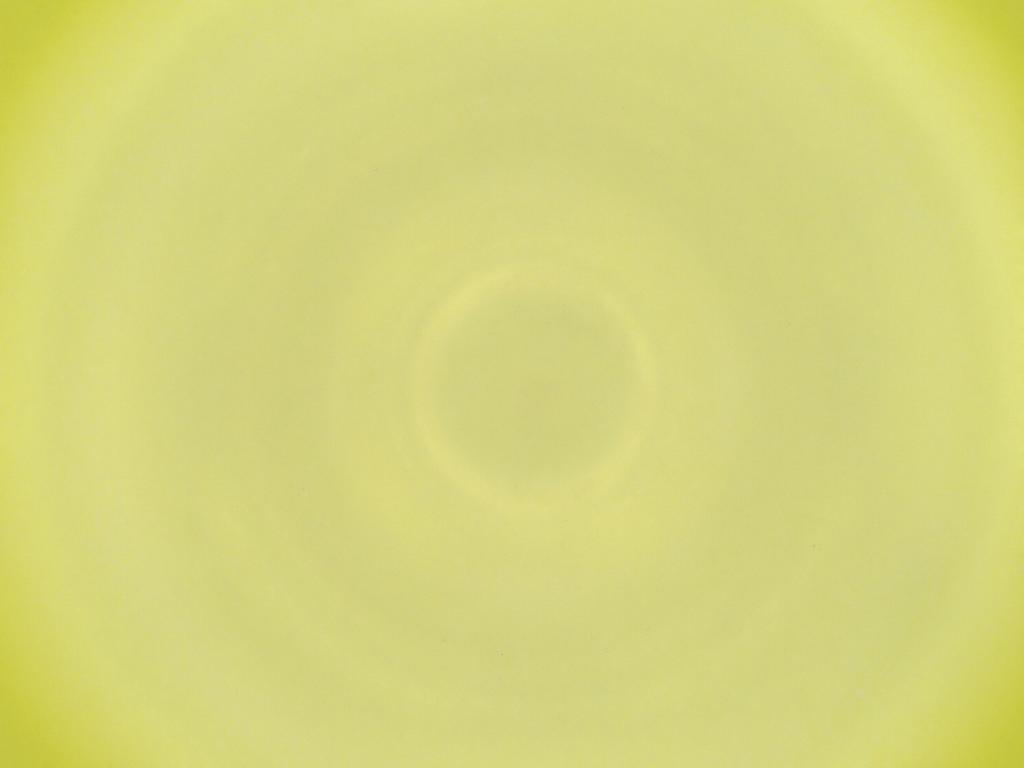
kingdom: Animalia
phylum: Arthropoda
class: Insecta
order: Diptera
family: Cecidomyiidae
